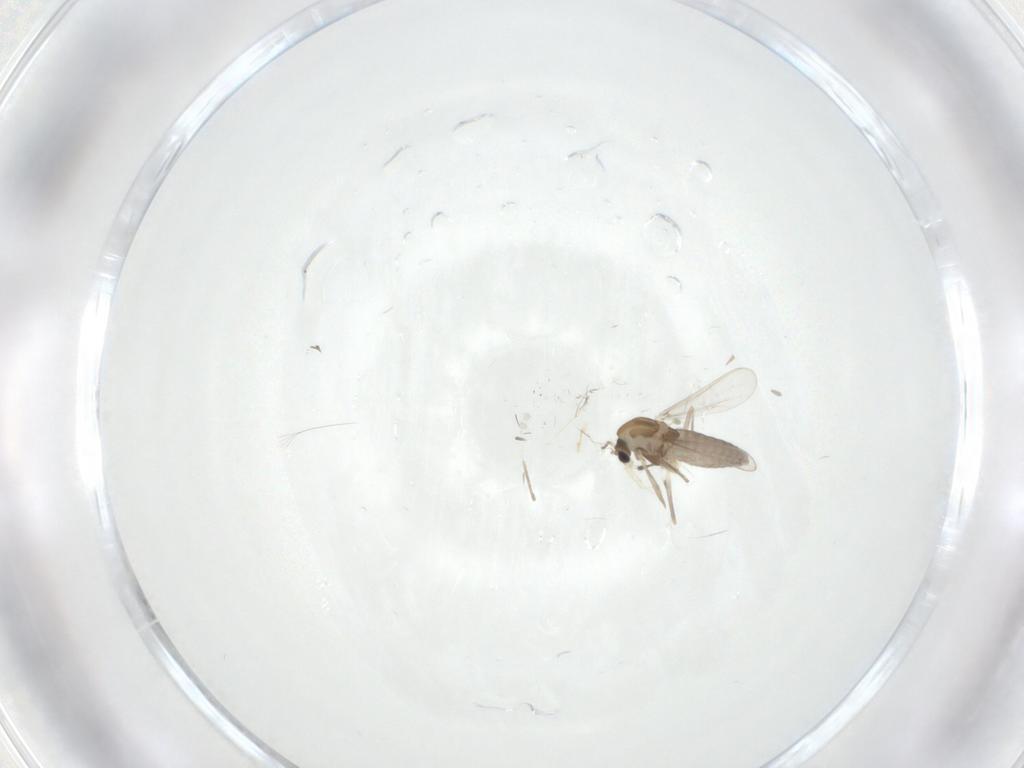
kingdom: Animalia
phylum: Arthropoda
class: Insecta
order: Diptera
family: Chironomidae
